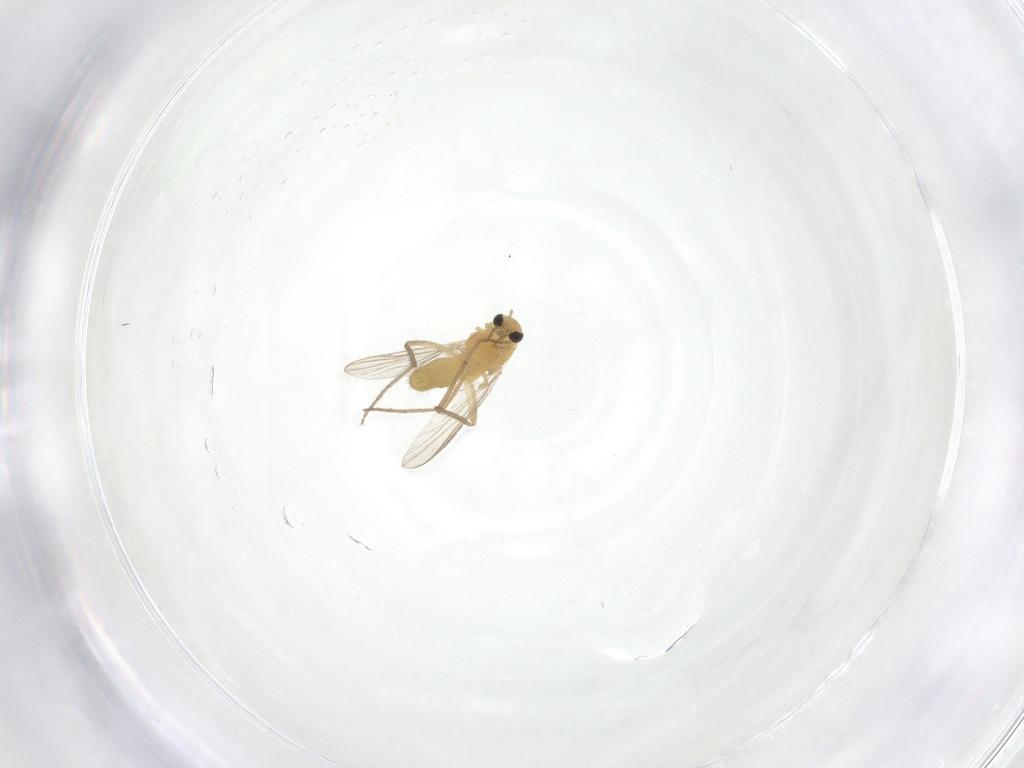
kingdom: Animalia
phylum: Arthropoda
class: Insecta
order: Diptera
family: Chironomidae
